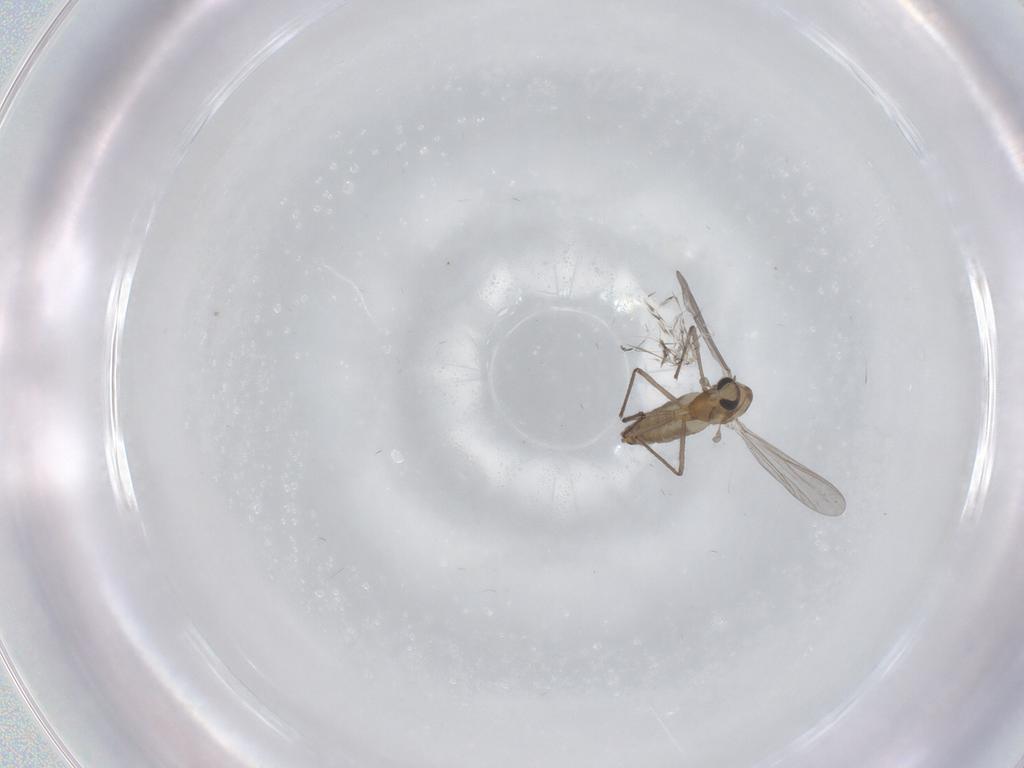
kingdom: Animalia
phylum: Arthropoda
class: Insecta
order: Diptera
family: Chironomidae
